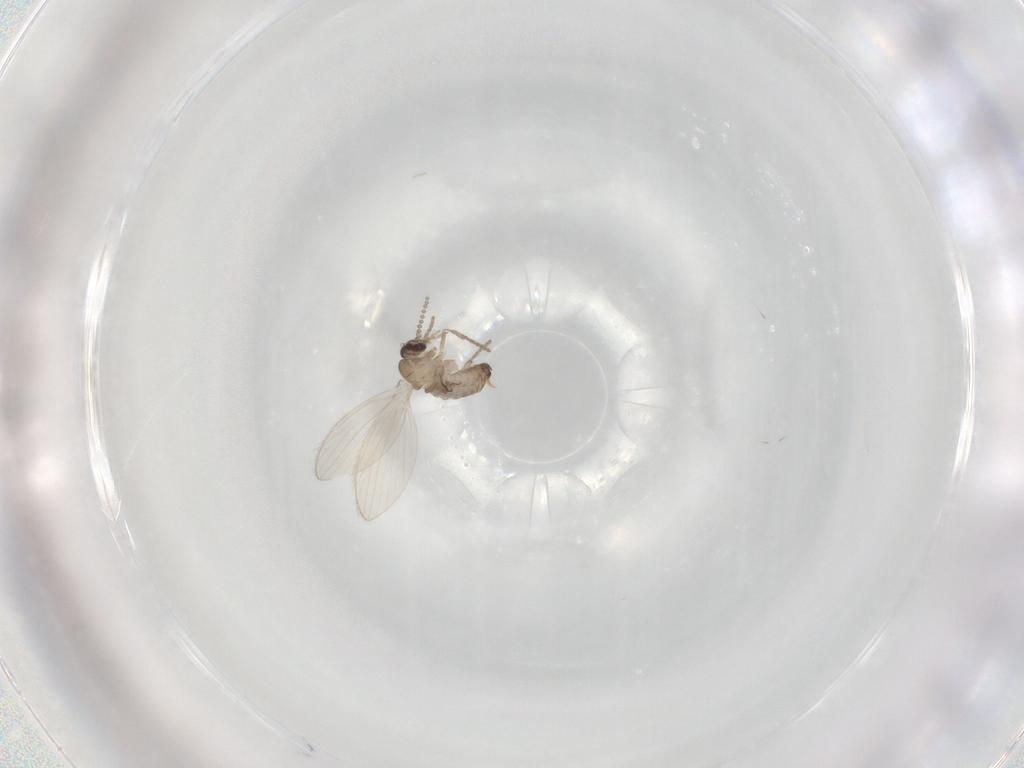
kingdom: Animalia
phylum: Arthropoda
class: Insecta
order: Diptera
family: Psychodidae
